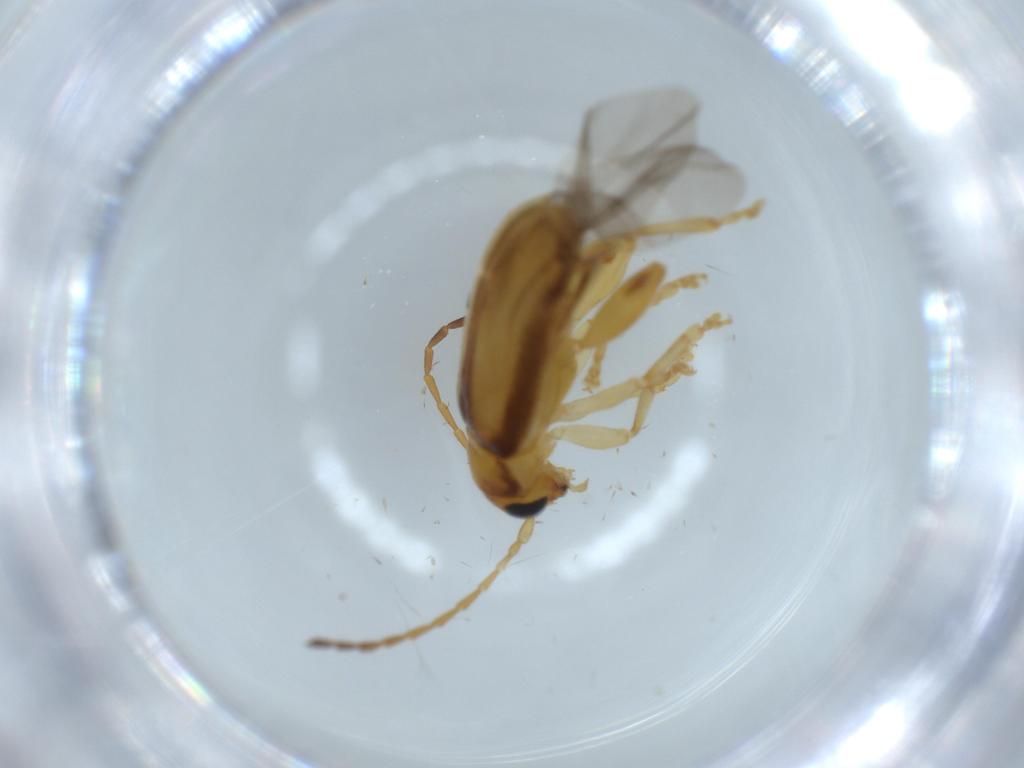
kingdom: Animalia
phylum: Arthropoda
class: Insecta
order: Coleoptera
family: Chrysomelidae
